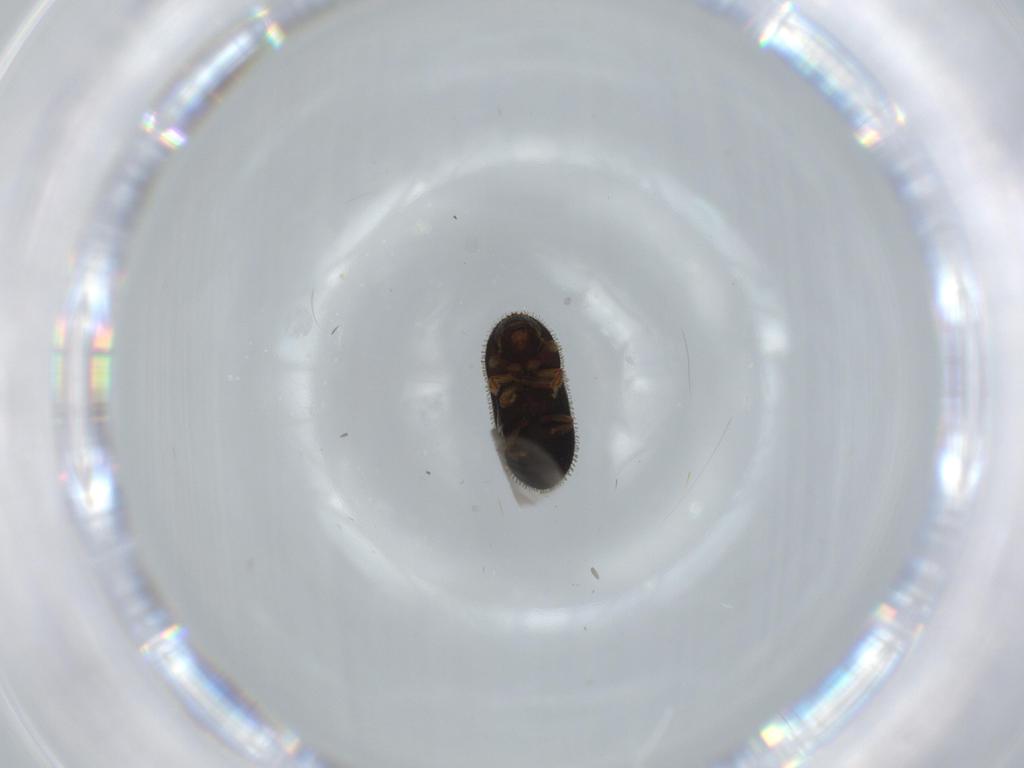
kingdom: Animalia
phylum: Arthropoda
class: Insecta
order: Coleoptera
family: Curculionidae
